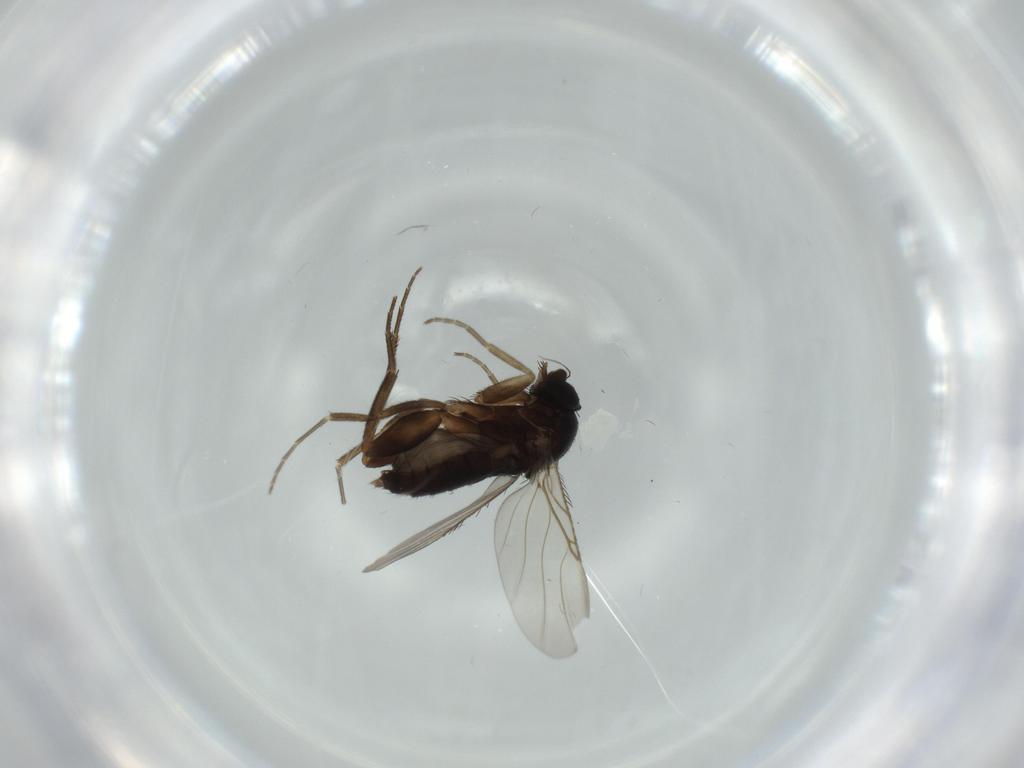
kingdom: Animalia
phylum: Arthropoda
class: Insecta
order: Diptera
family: Phoridae
